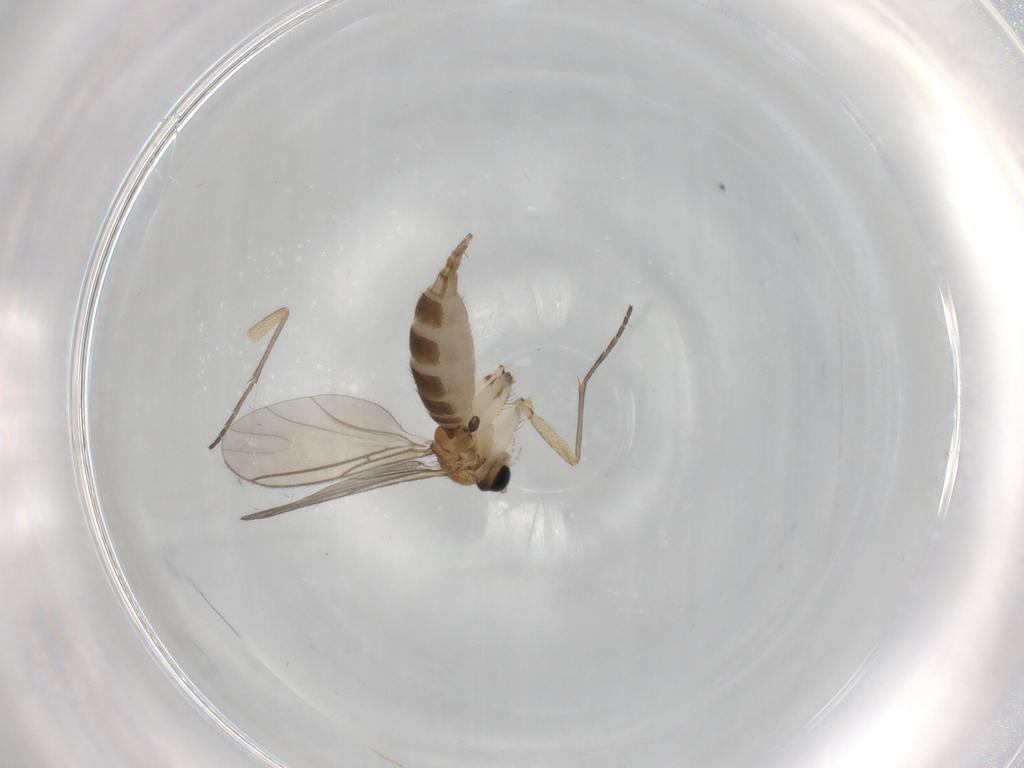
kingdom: Animalia
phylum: Arthropoda
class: Insecta
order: Diptera
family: Sciaridae
